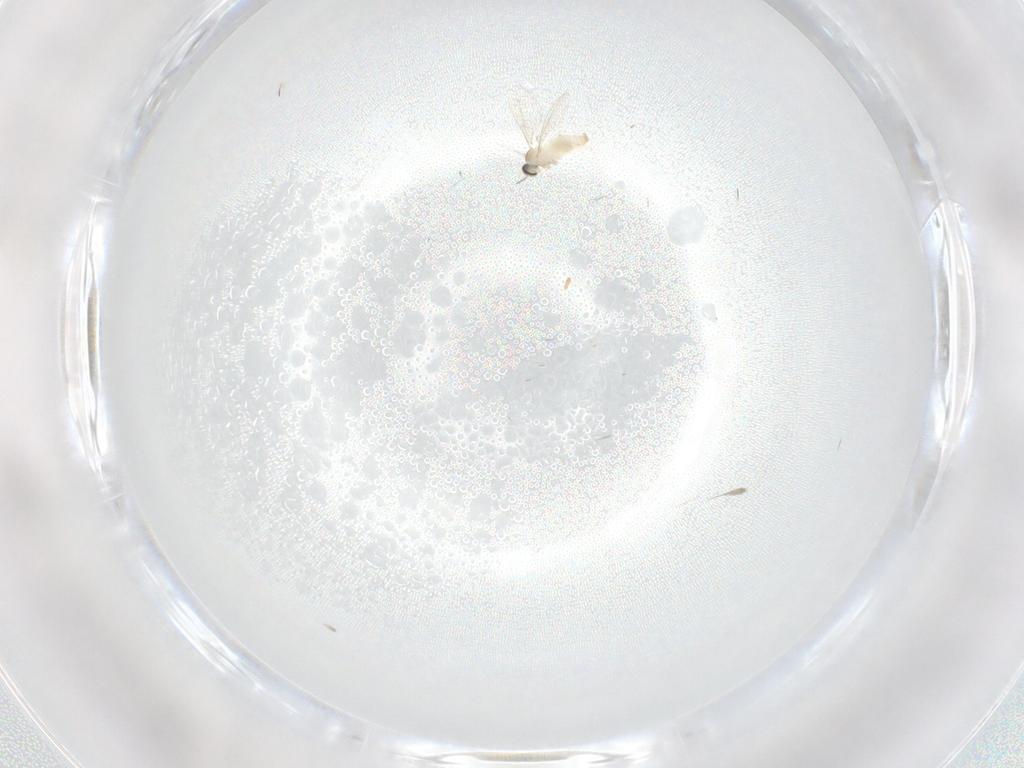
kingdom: Animalia
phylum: Arthropoda
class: Insecta
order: Diptera
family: Cecidomyiidae
